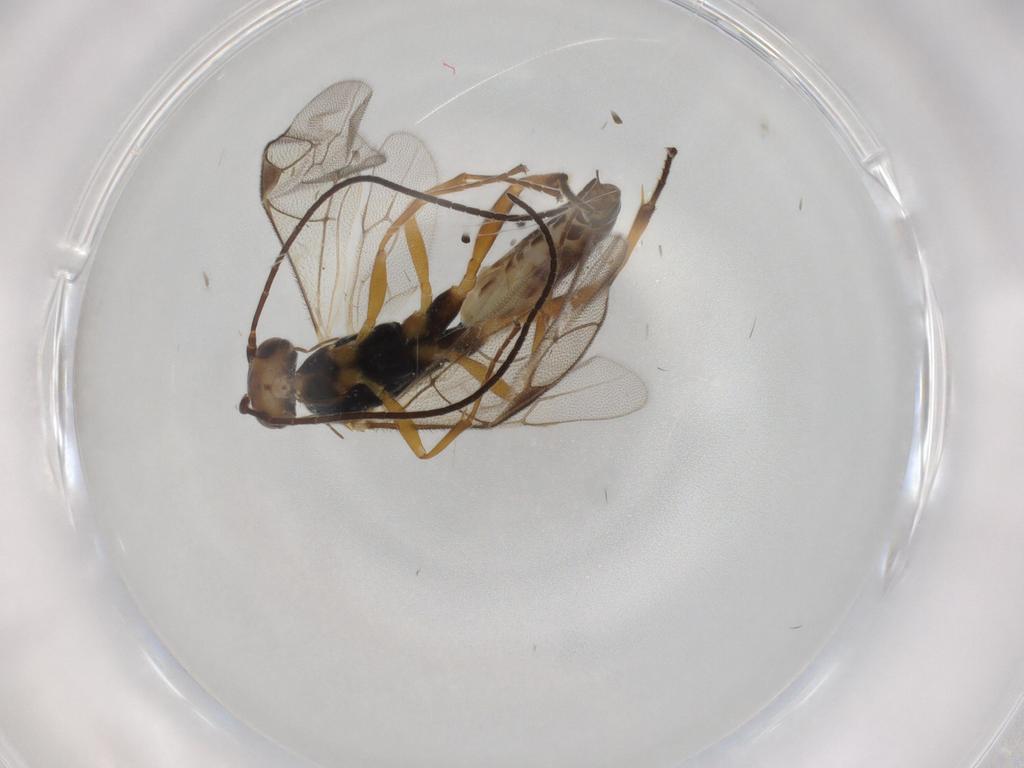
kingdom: Animalia
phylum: Arthropoda
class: Insecta
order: Hymenoptera
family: Ichneumonidae
